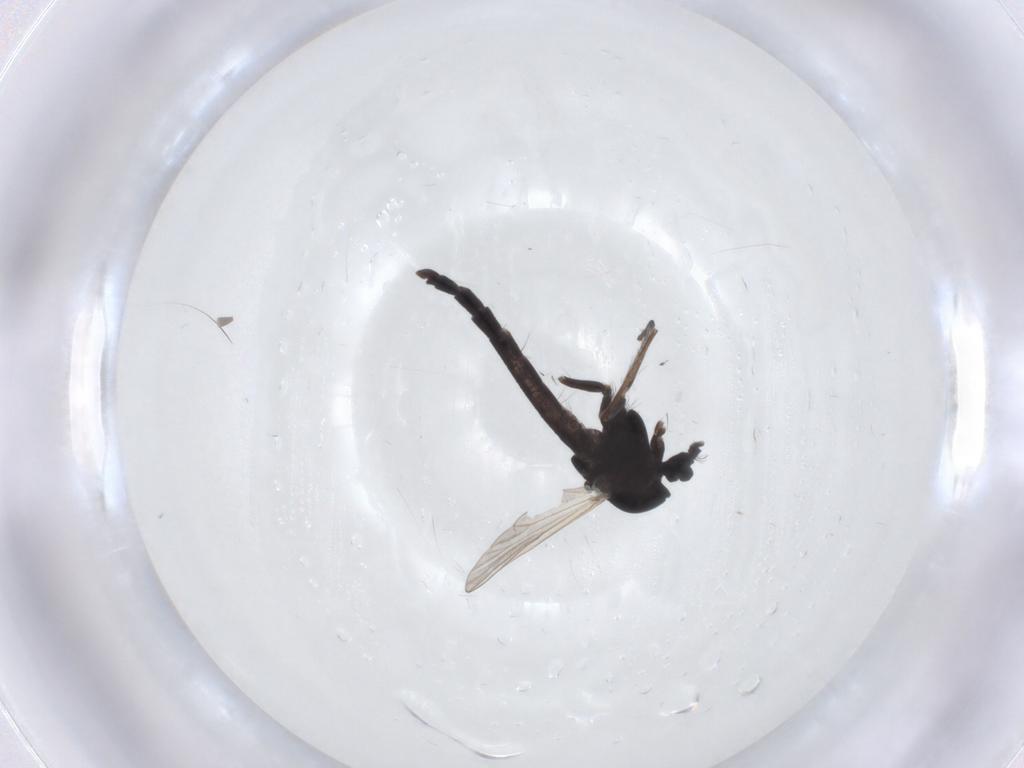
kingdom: Animalia
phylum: Arthropoda
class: Insecta
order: Diptera
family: Chironomidae
